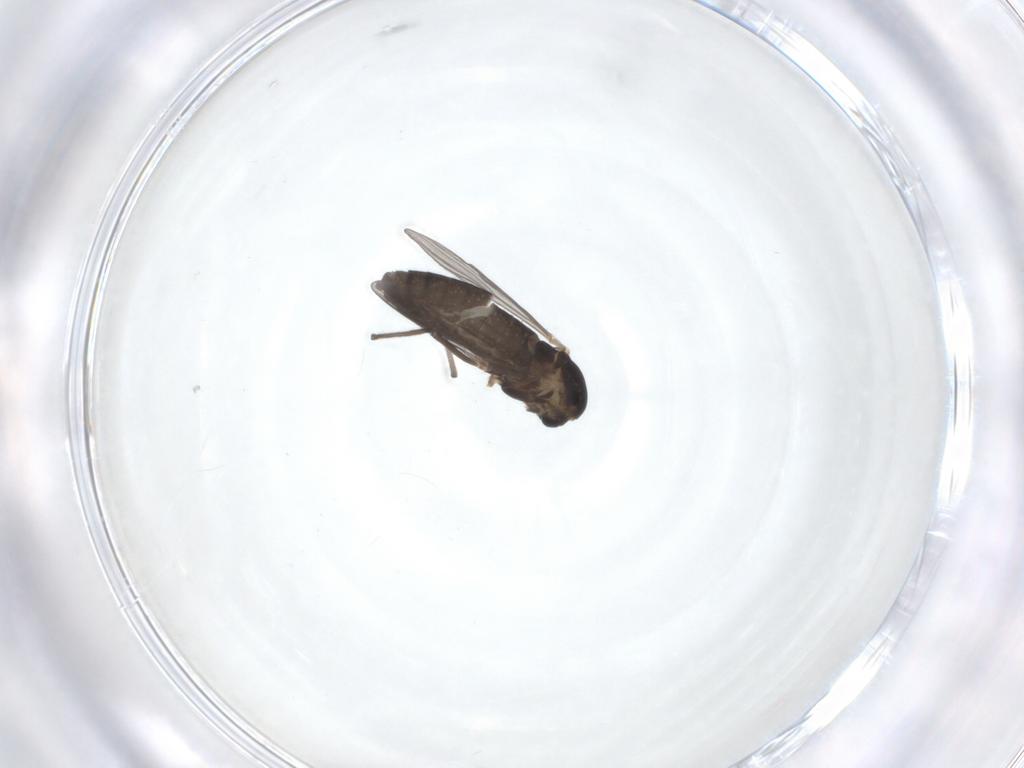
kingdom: Animalia
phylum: Arthropoda
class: Insecta
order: Diptera
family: Chironomidae
